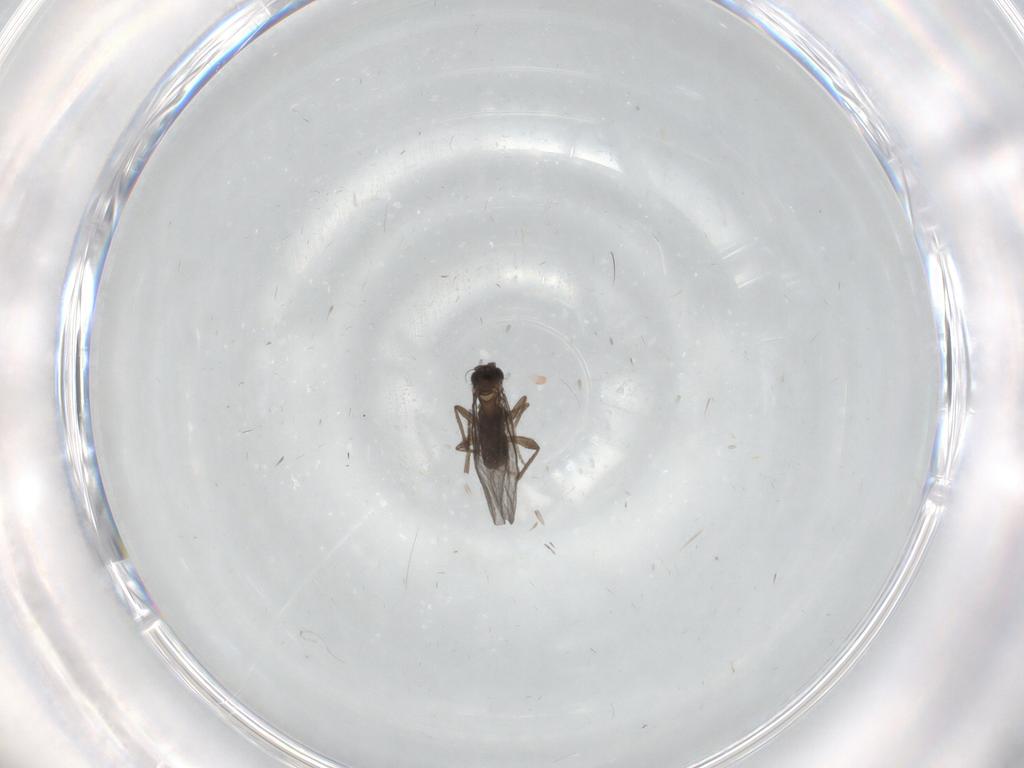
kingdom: Animalia
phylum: Arthropoda
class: Insecta
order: Diptera
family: Sciaridae
